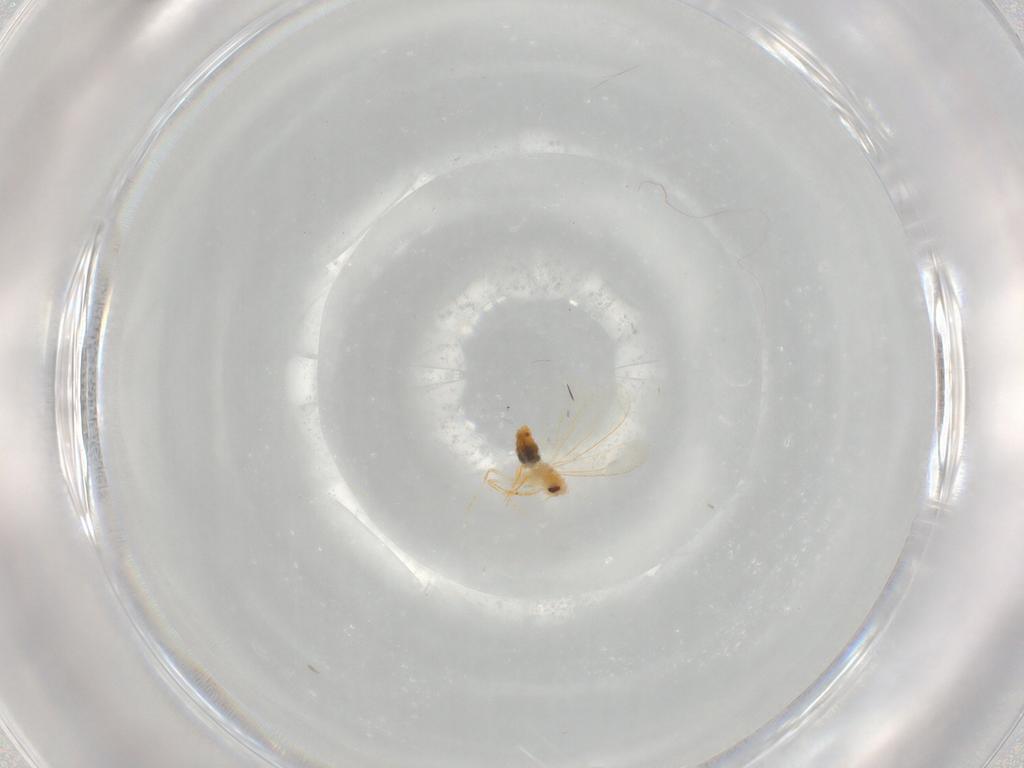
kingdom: Animalia
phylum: Arthropoda
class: Insecta
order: Hemiptera
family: Aleyrodidae
